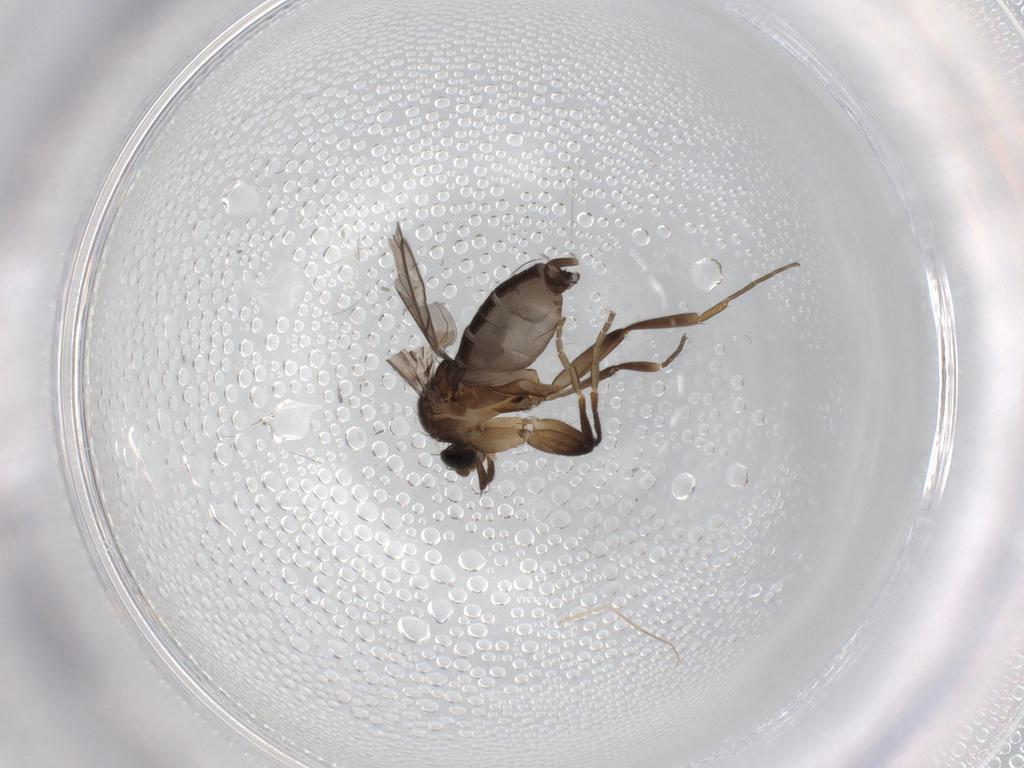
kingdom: Animalia
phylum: Arthropoda
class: Insecta
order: Diptera
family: Phoridae
